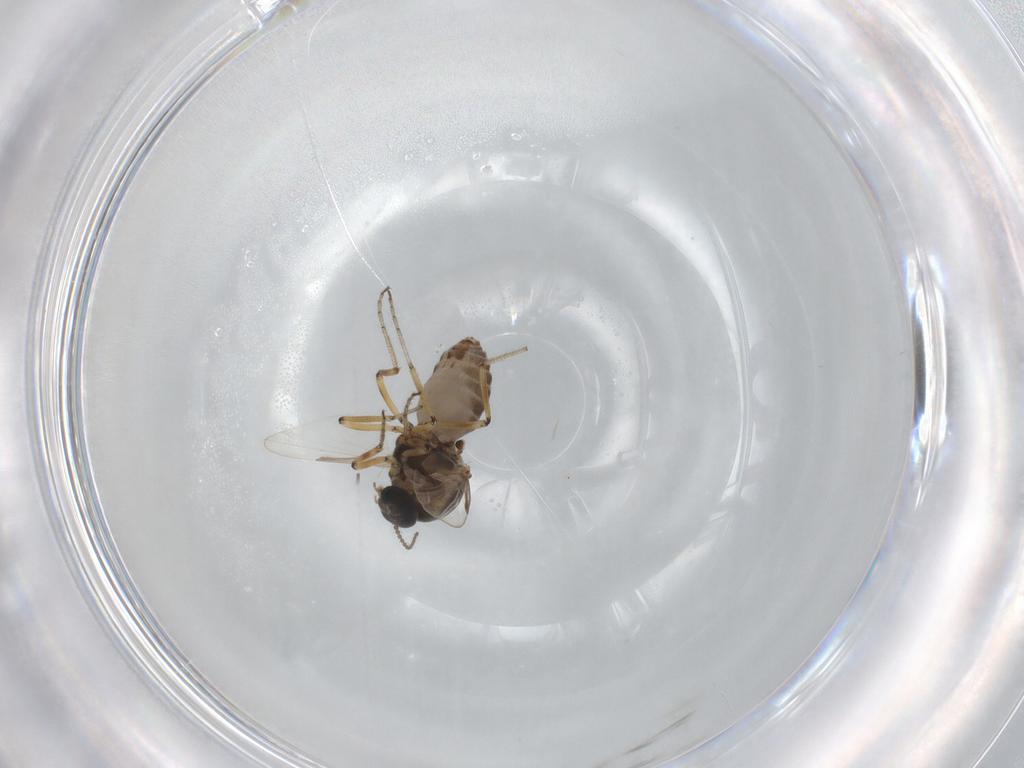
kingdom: Animalia
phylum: Arthropoda
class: Insecta
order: Diptera
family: Ceratopogonidae
